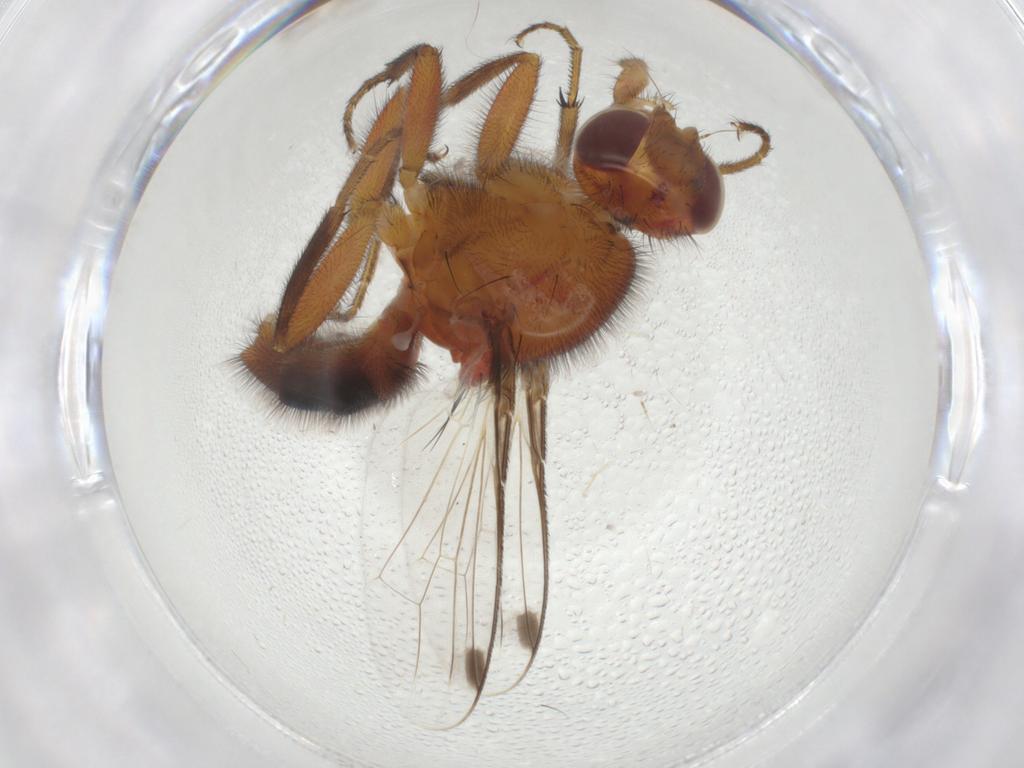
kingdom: Animalia
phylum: Arthropoda
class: Insecta
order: Diptera
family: Richardiidae
